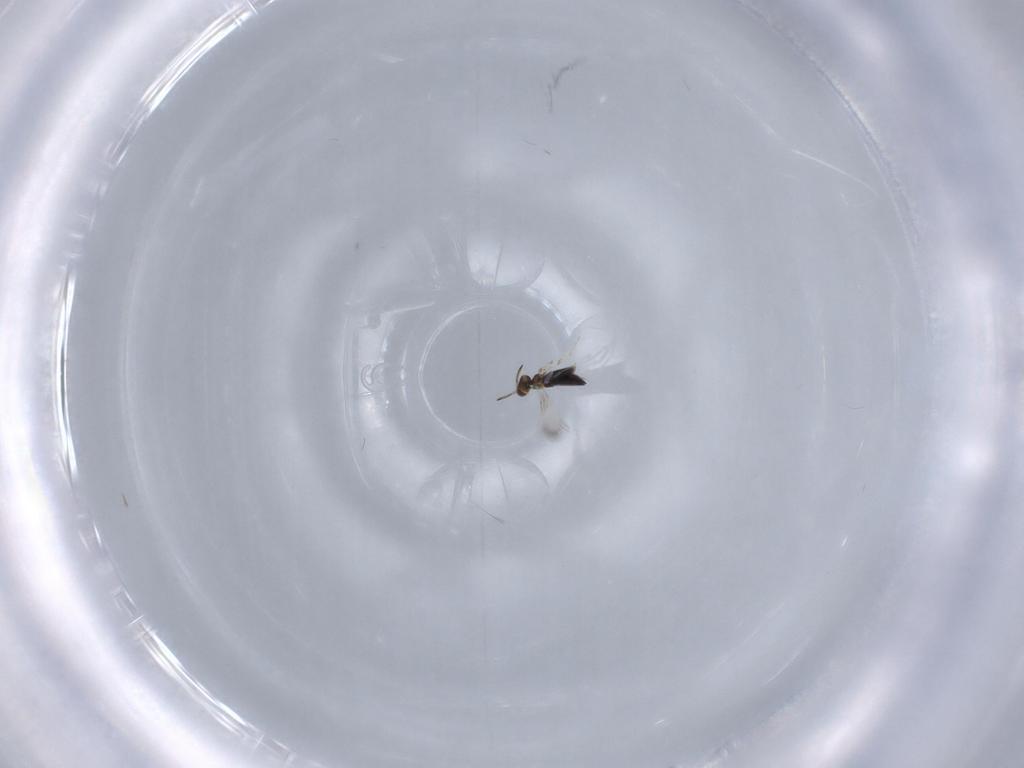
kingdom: Animalia
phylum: Arthropoda
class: Insecta
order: Hymenoptera
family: Signiphoridae
